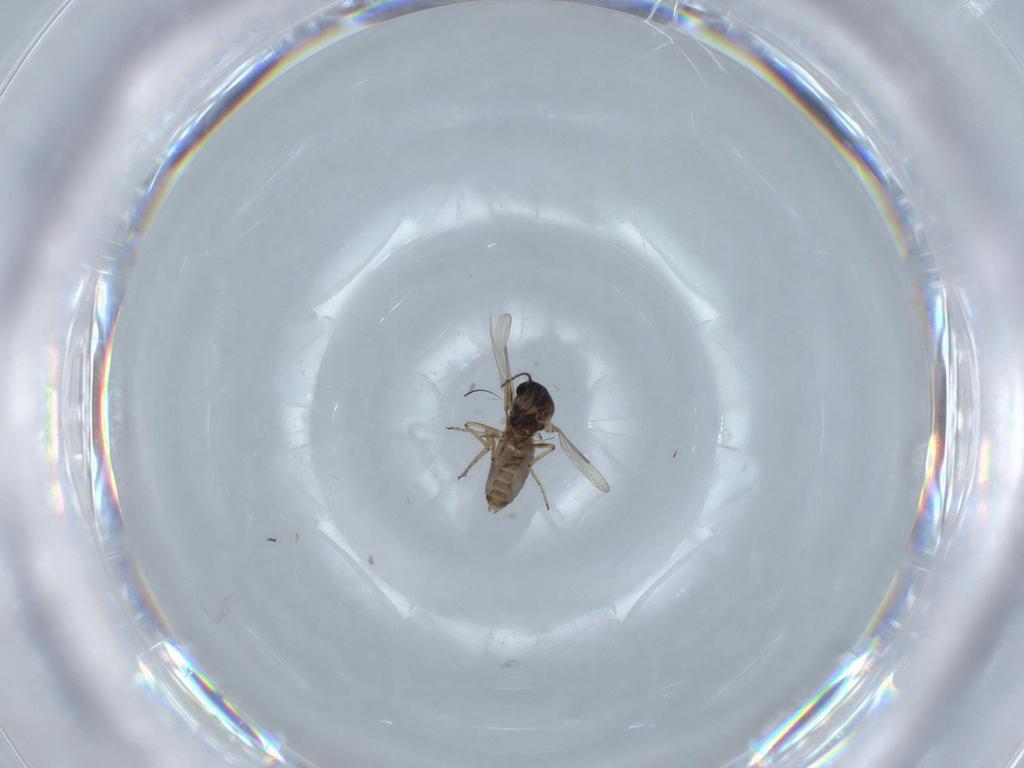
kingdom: Animalia
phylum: Arthropoda
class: Insecta
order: Diptera
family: Ceratopogonidae
